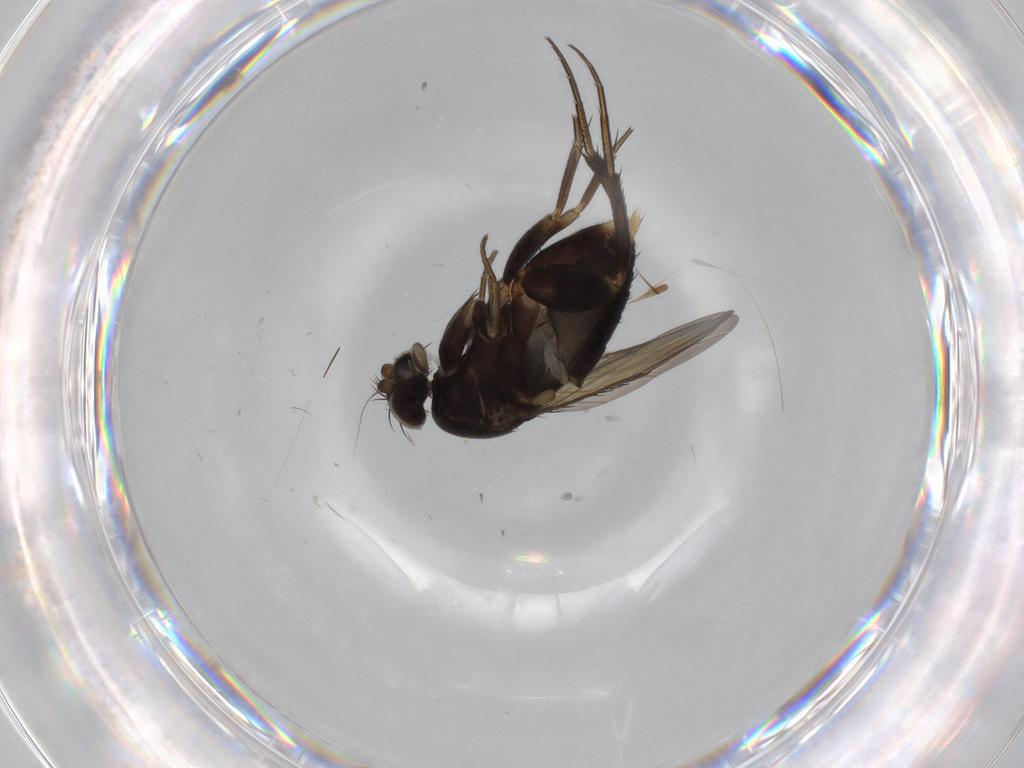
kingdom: Animalia
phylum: Arthropoda
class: Insecta
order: Diptera
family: Phoridae
